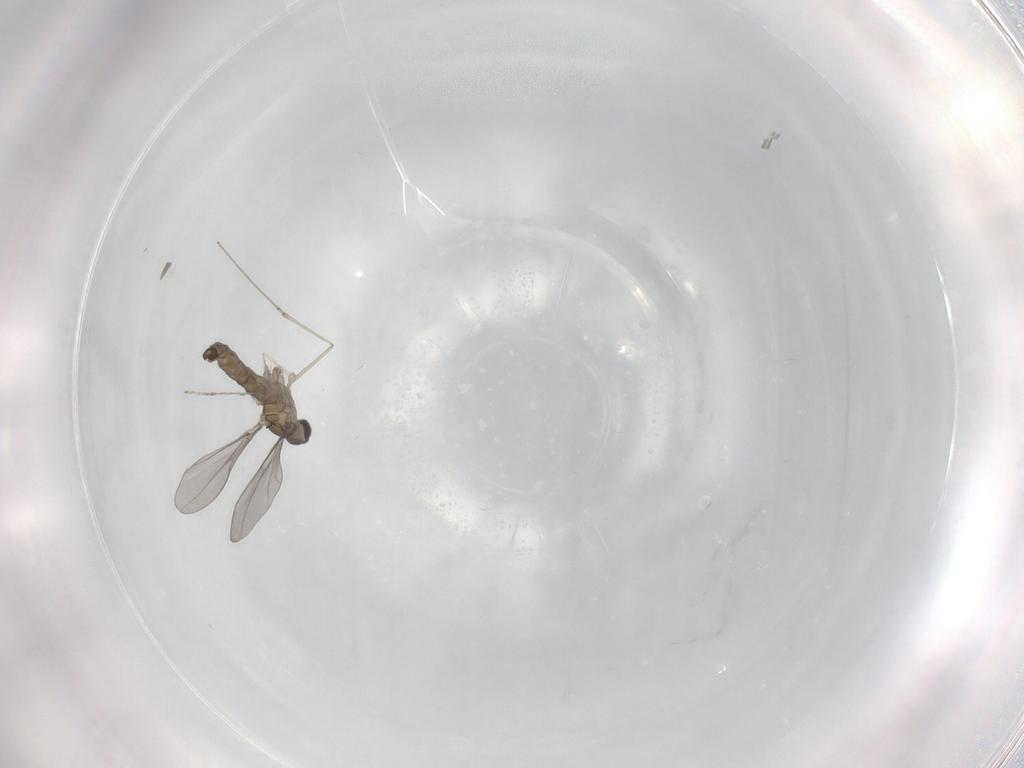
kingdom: Animalia
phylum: Arthropoda
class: Insecta
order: Diptera
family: Cecidomyiidae
